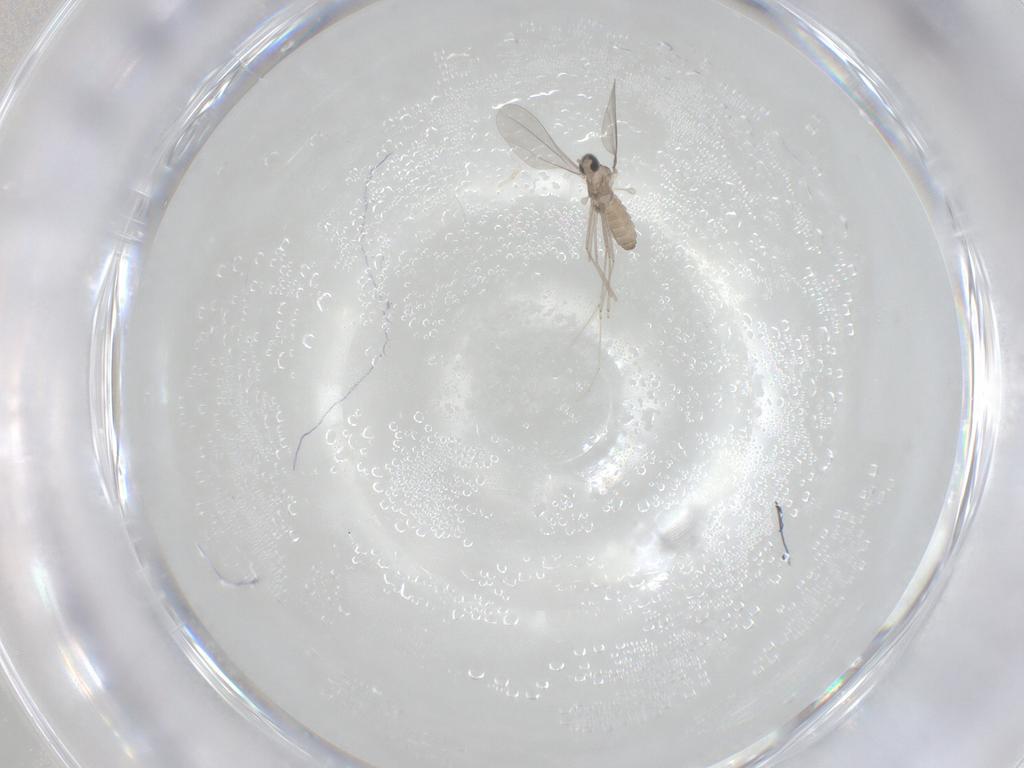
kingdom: Animalia
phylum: Arthropoda
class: Insecta
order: Diptera
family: Cecidomyiidae
